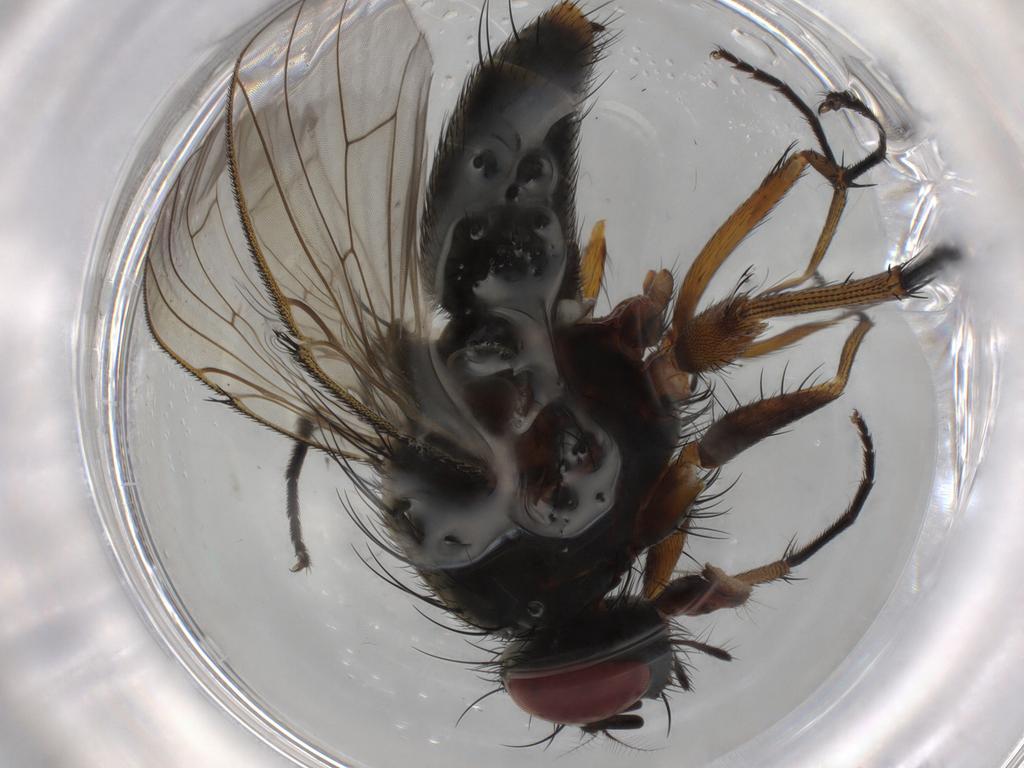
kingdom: Animalia
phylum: Arthropoda
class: Insecta
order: Diptera
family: Muscidae
